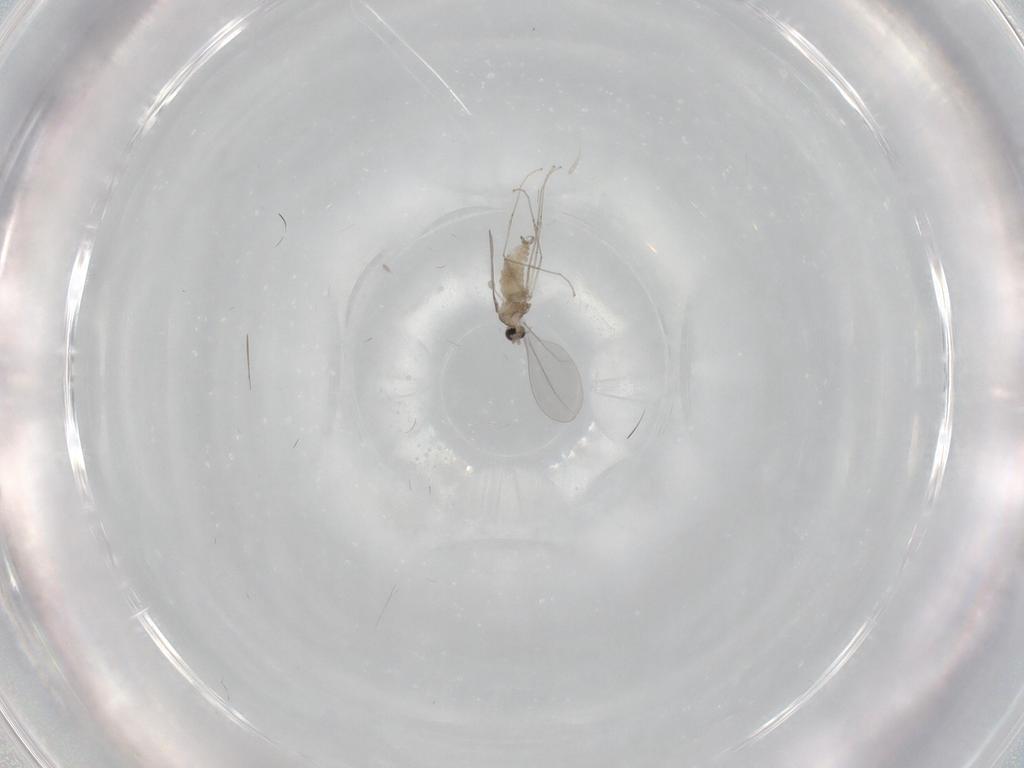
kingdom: Animalia
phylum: Arthropoda
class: Insecta
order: Diptera
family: Cecidomyiidae
